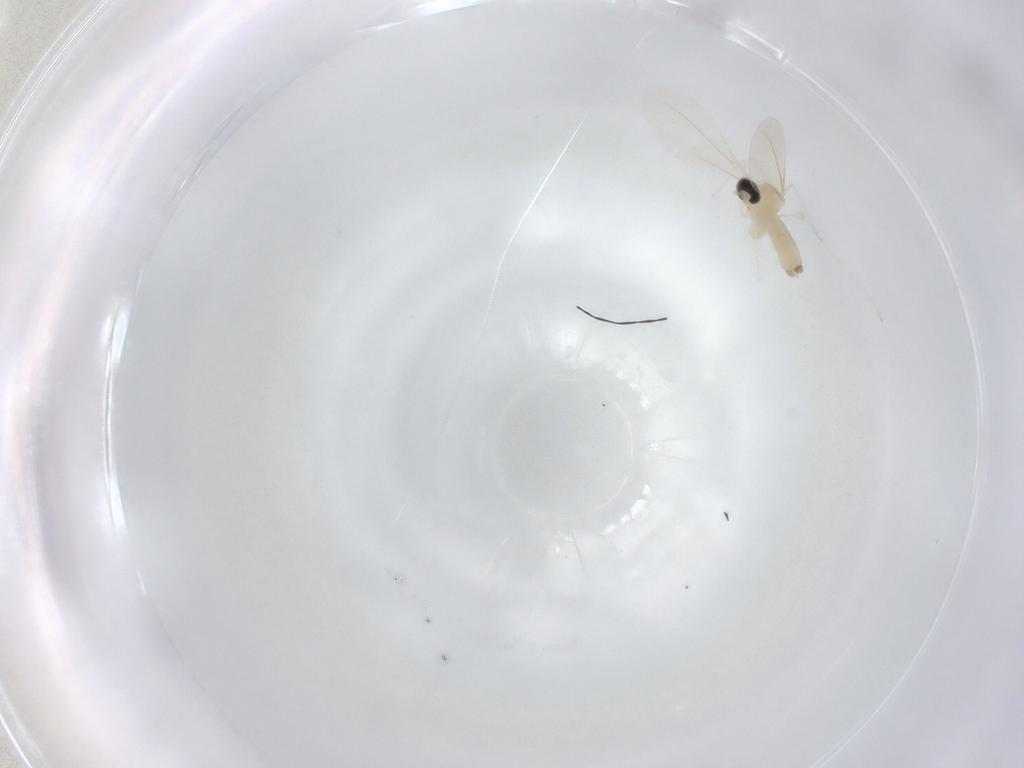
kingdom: Animalia
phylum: Arthropoda
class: Insecta
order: Diptera
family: Cecidomyiidae
